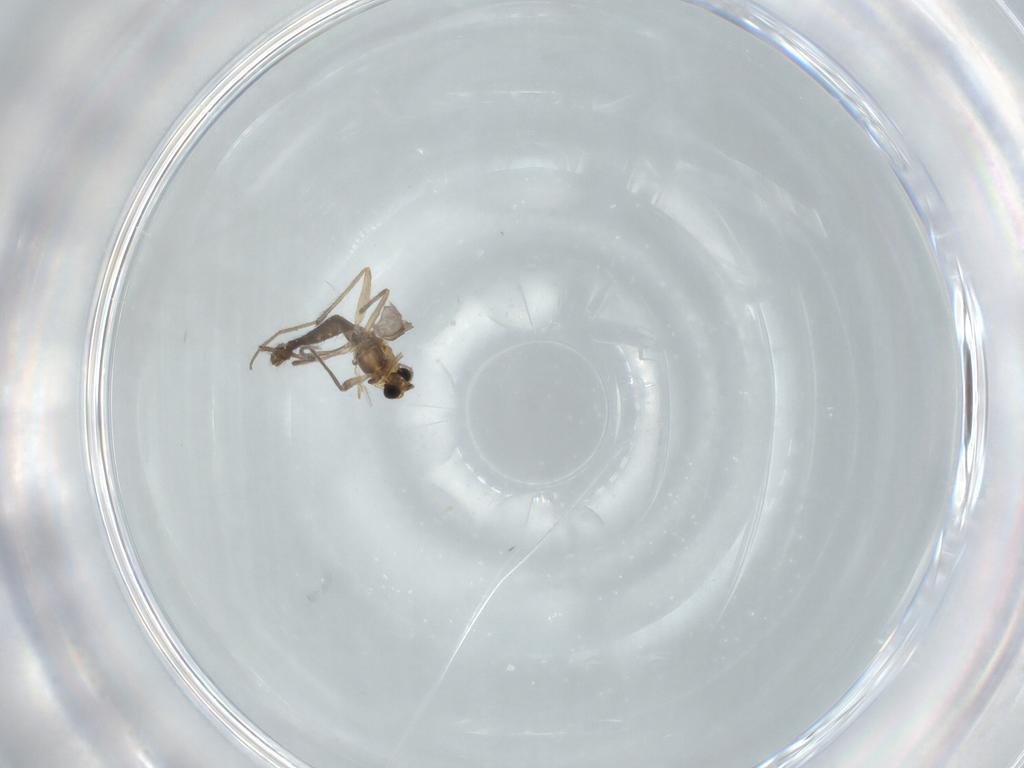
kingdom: Animalia
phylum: Arthropoda
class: Insecta
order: Diptera
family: Chironomidae
